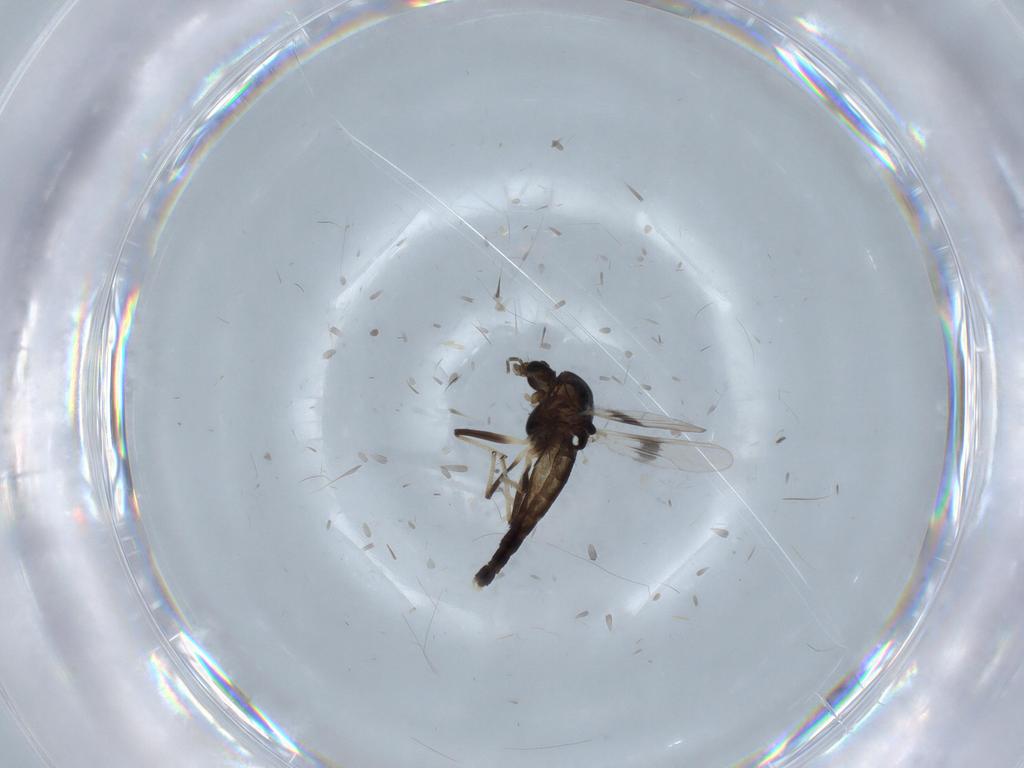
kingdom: Animalia
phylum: Arthropoda
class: Insecta
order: Diptera
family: Chironomidae
